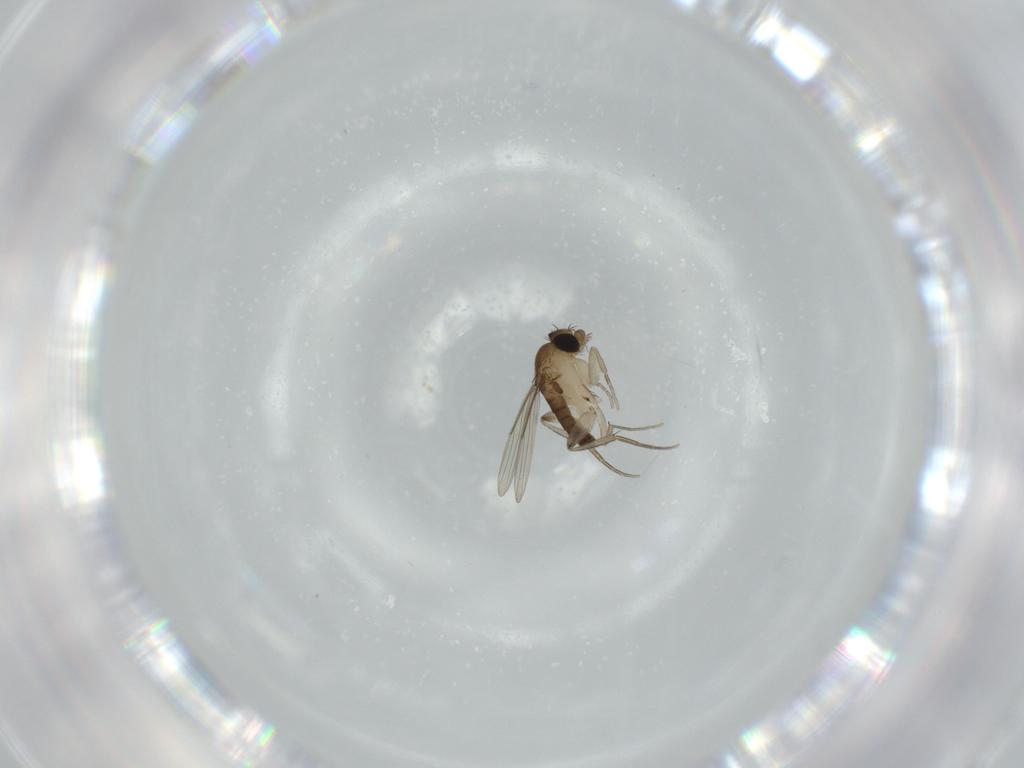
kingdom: Animalia
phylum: Arthropoda
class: Insecta
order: Diptera
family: Phoridae
